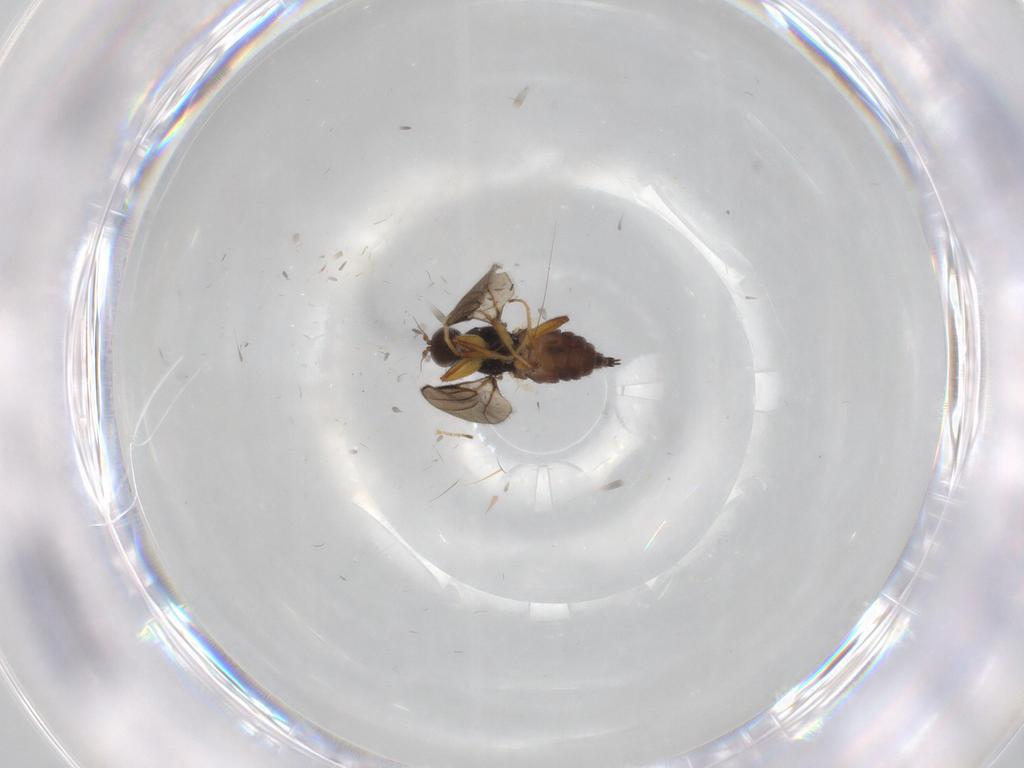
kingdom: Animalia
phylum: Arthropoda
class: Insecta
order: Diptera
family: Hybotidae
